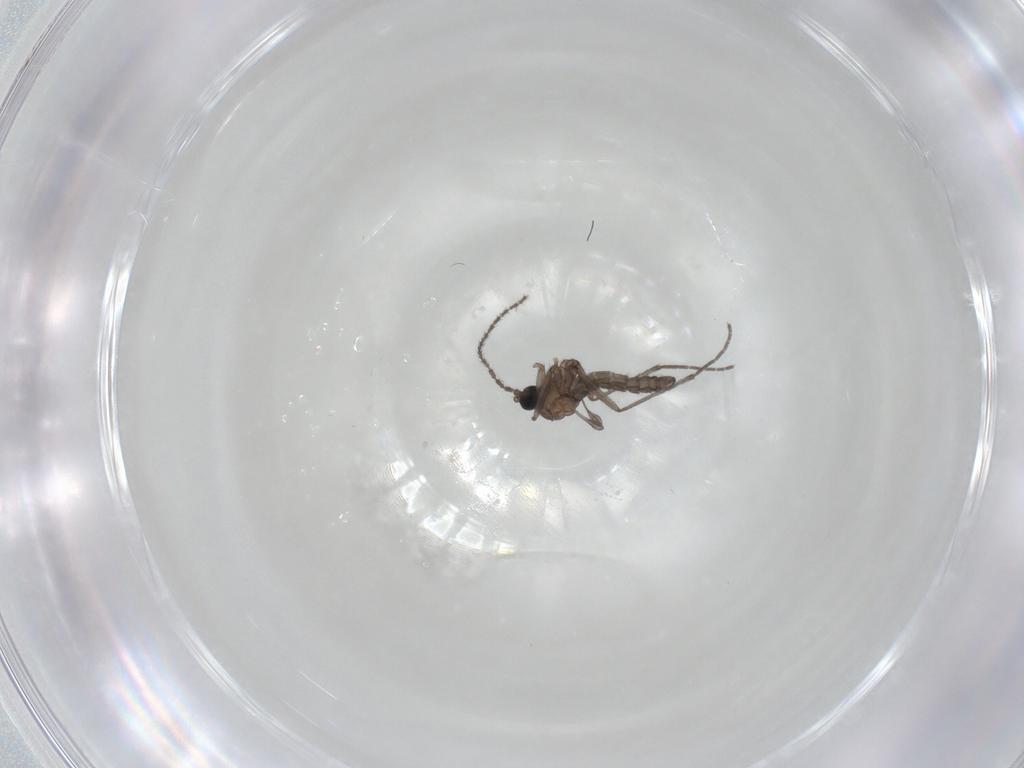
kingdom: Animalia
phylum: Arthropoda
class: Insecta
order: Diptera
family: Sciaridae
